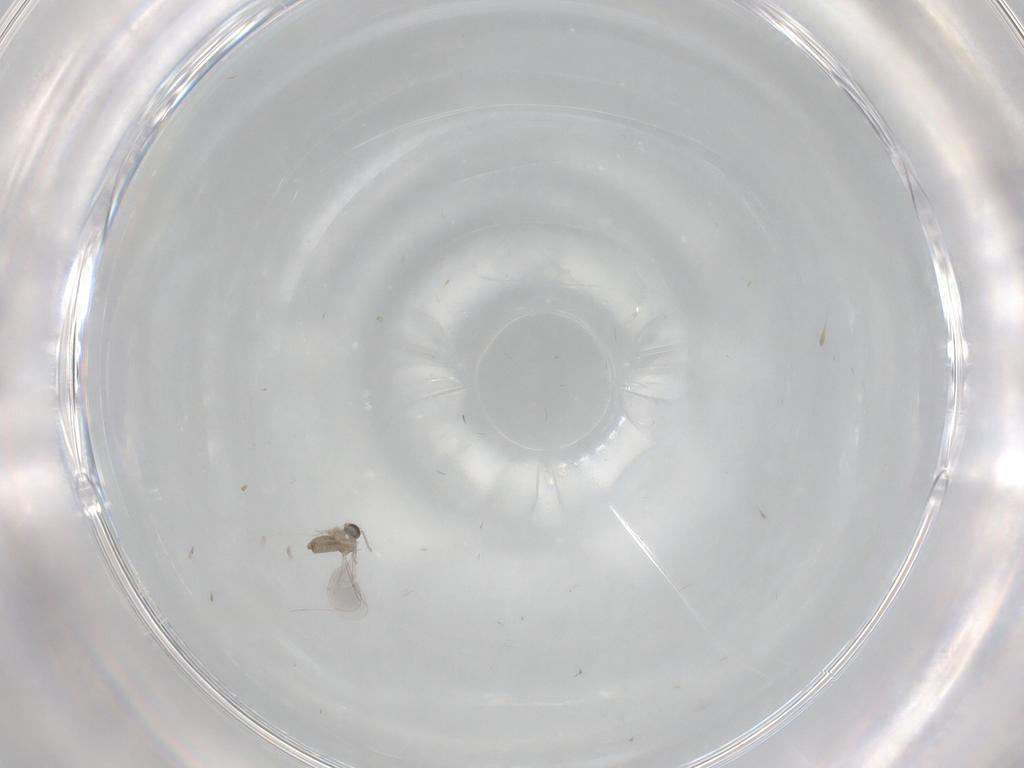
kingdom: Animalia
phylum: Arthropoda
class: Insecta
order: Diptera
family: Cecidomyiidae
